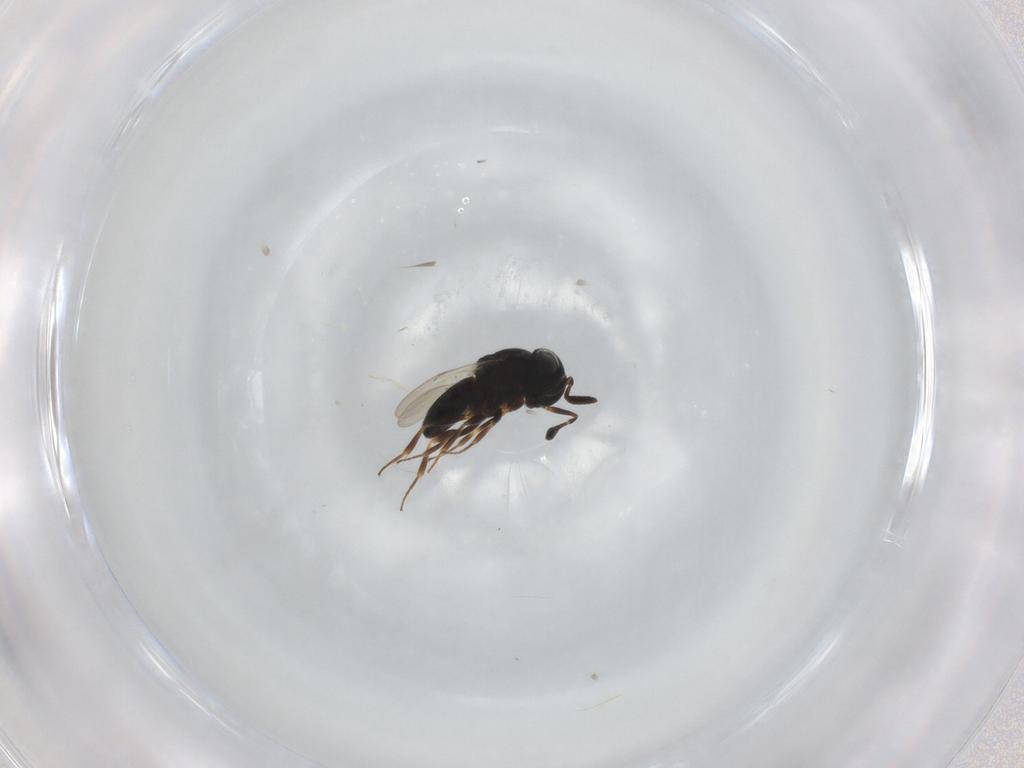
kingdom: Animalia
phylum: Arthropoda
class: Insecta
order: Hymenoptera
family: Scelionidae
